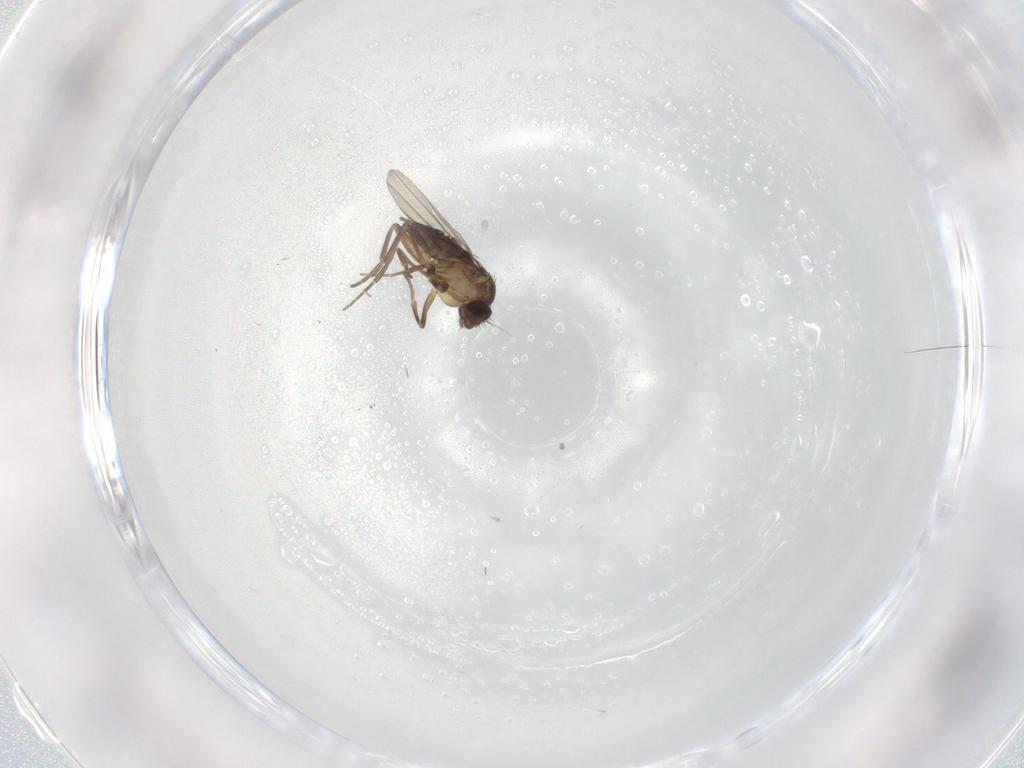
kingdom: Animalia
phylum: Arthropoda
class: Insecta
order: Diptera
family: Phoridae
